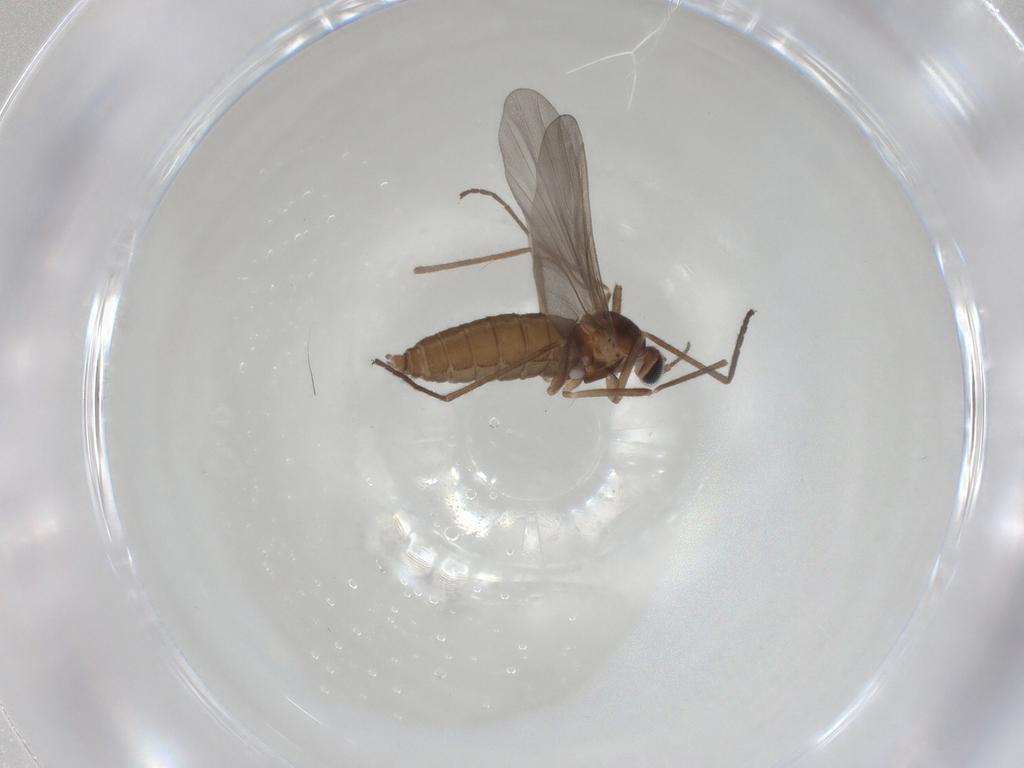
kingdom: Animalia
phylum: Arthropoda
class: Insecta
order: Diptera
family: Cecidomyiidae
